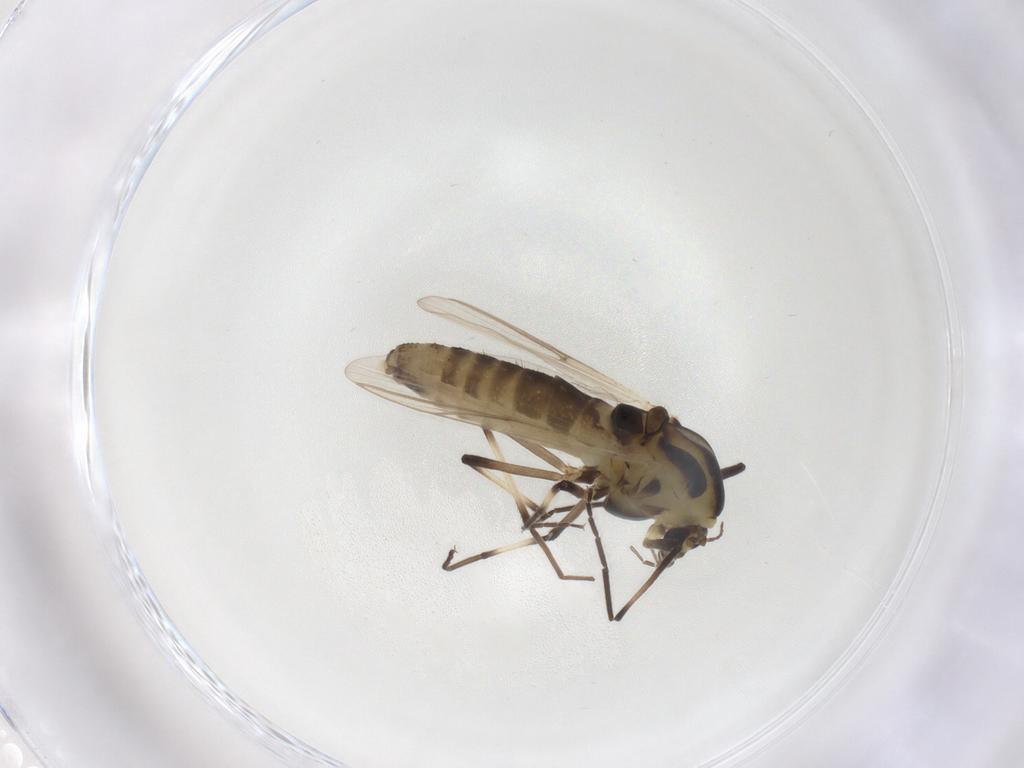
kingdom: Animalia
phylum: Arthropoda
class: Insecta
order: Diptera
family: Chironomidae
